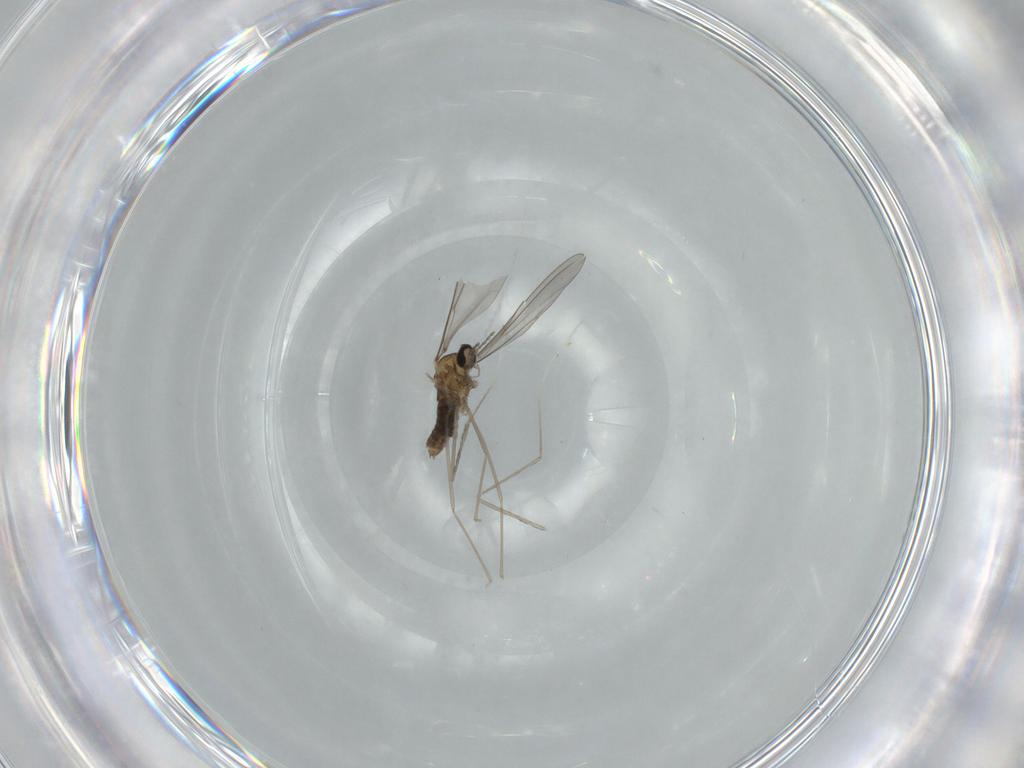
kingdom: Animalia
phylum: Arthropoda
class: Insecta
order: Diptera
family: Cecidomyiidae
